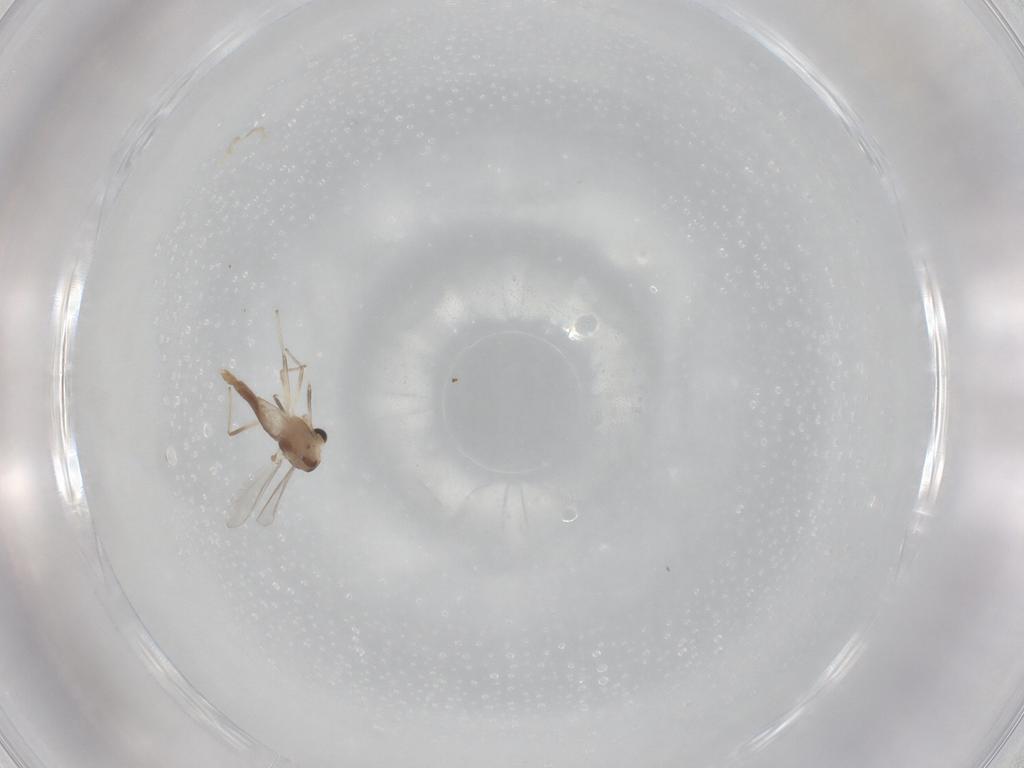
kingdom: Animalia
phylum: Arthropoda
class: Insecta
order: Diptera
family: Chironomidae
